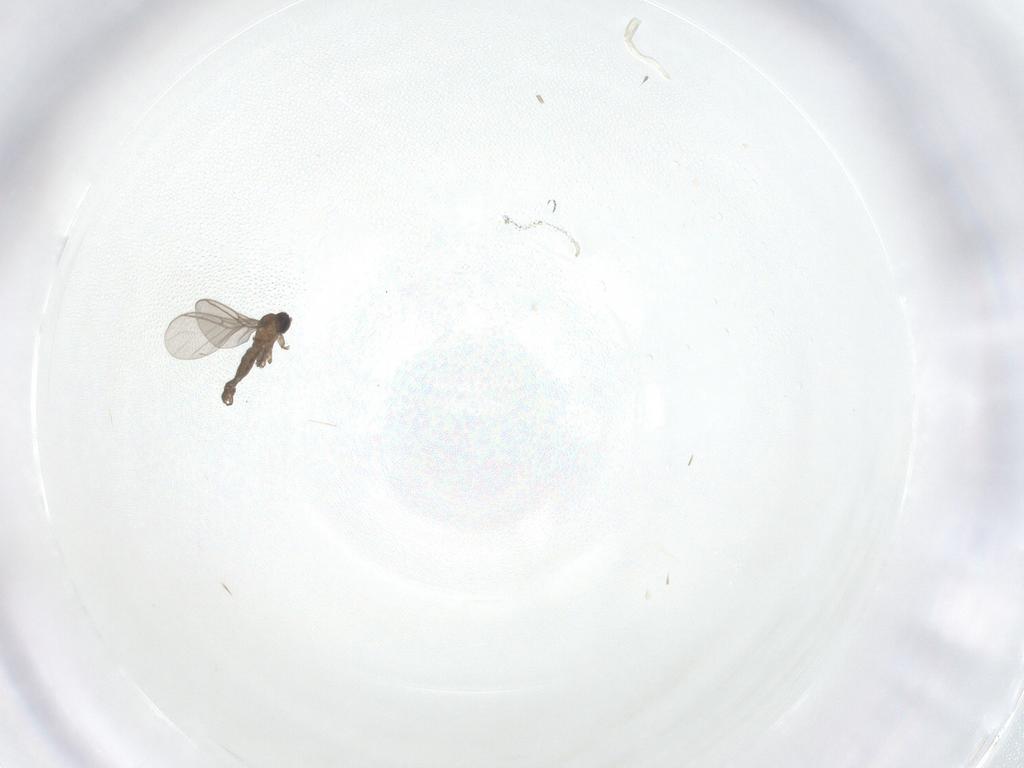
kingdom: Animalia
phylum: Arthropoda
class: Insecta
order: Diptera
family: Sciaridae
